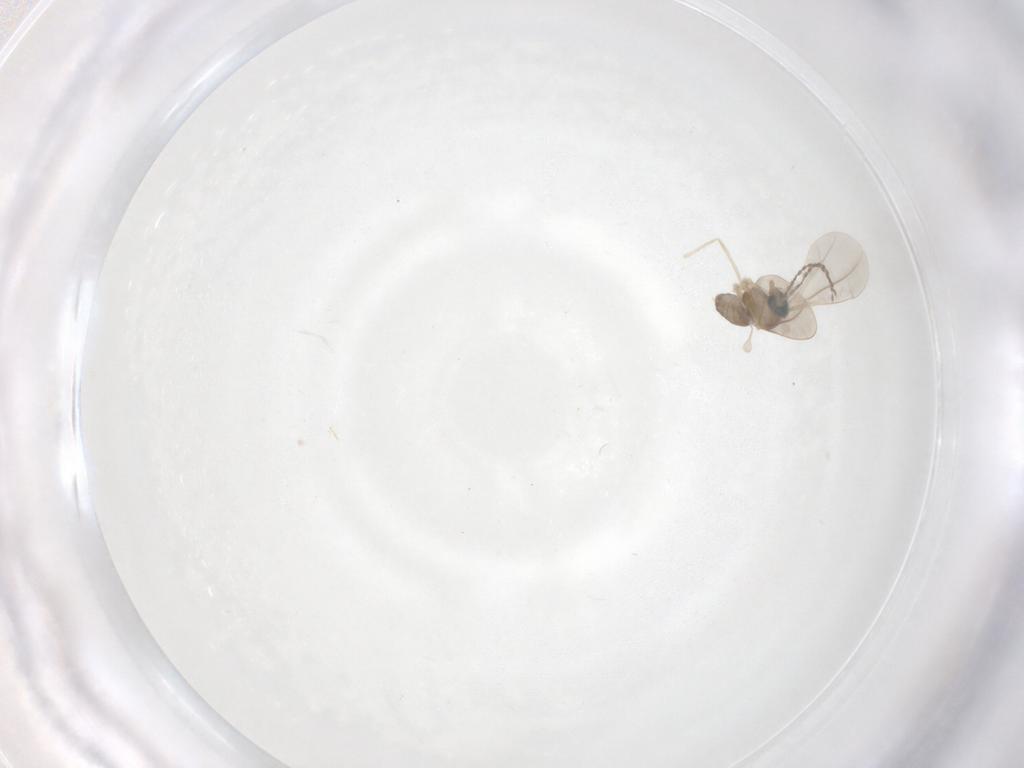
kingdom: Animalia
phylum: Arthropoda
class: Insecta
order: Diptera
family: Cecidomyiidae
